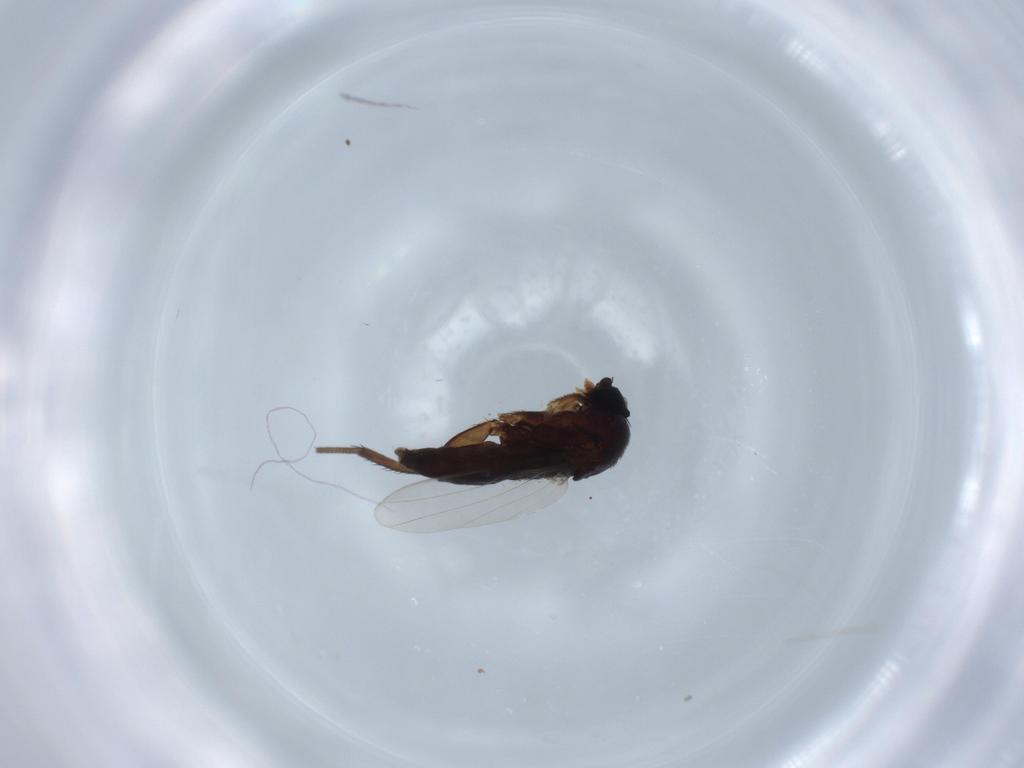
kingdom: Animalia
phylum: Arthropoda
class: Insecta
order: Diptera
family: Phoridae
